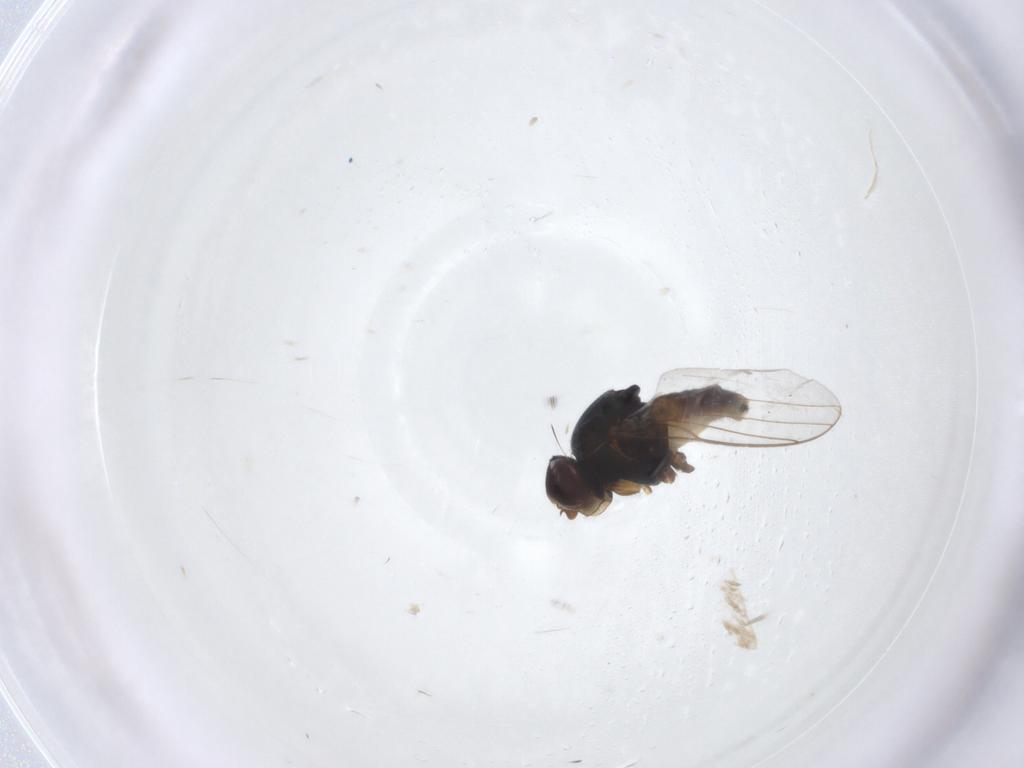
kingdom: Animalia
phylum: Arthropoda
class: Insecta
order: Diptera
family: Chloropidae
